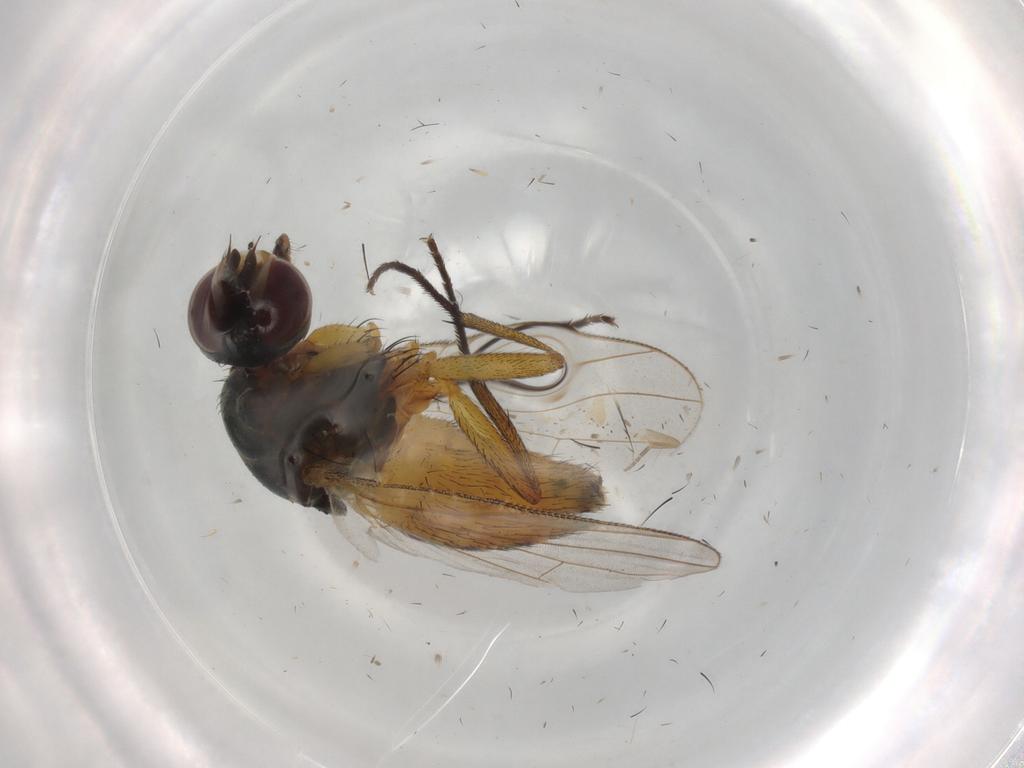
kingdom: Animalia
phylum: Arthropoda
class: Insecta
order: Diptera
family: Muscidae
